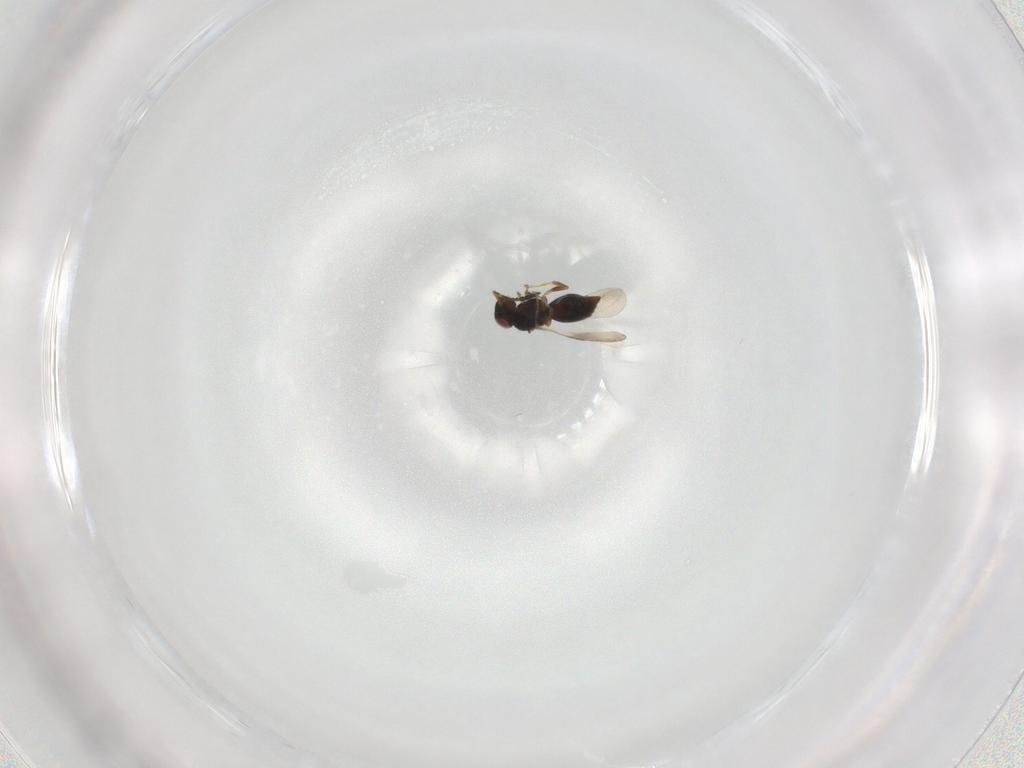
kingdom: Animalia
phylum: Arthropoda
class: Insecta
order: Hymenoptera
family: Formicidae
